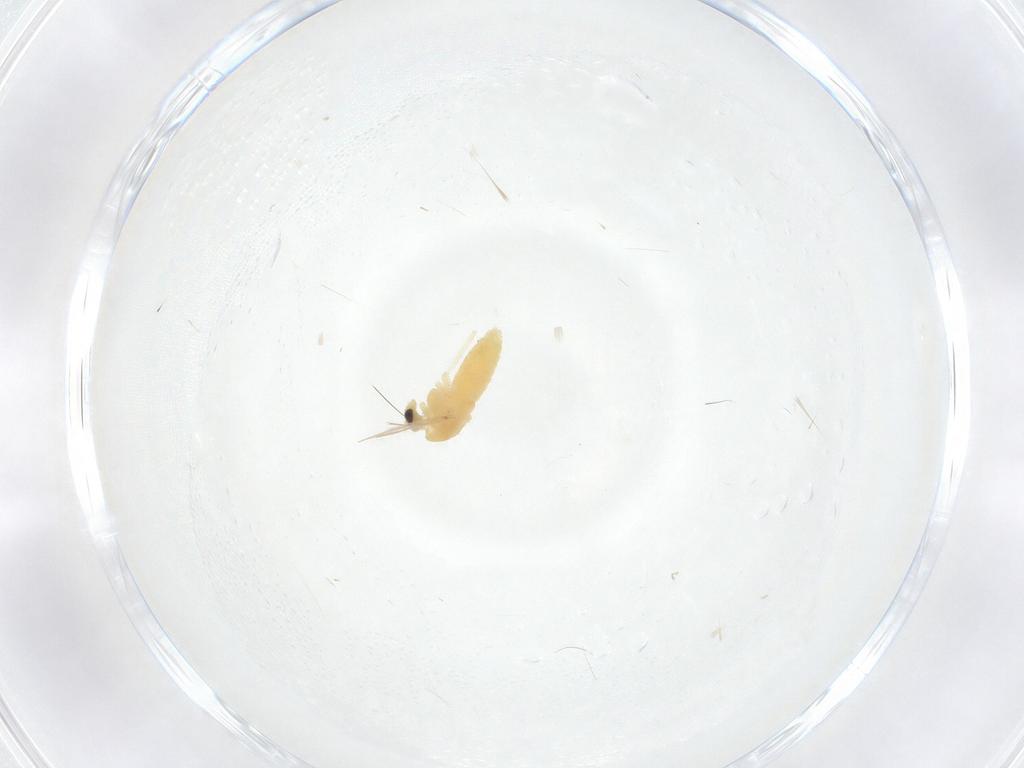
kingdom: Animalia
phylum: Arthropoda
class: Insecta
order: Diptera
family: Chironomidae
